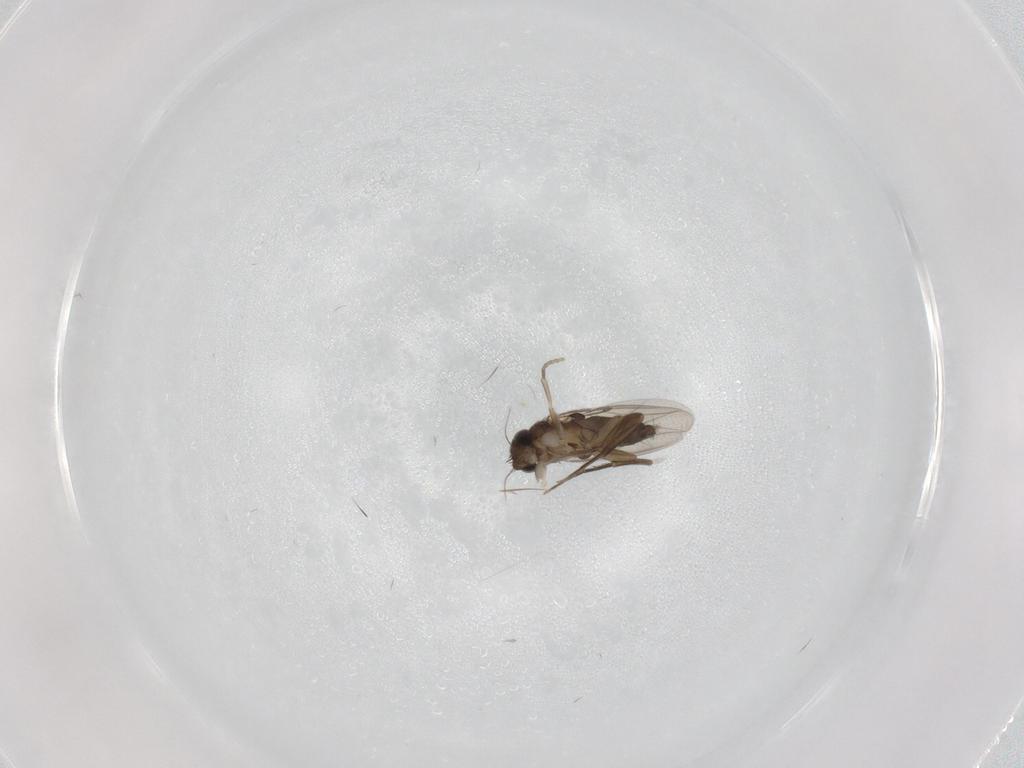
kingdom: Animalia
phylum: Arthropoda
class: Insecta
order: Diptera
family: Phoridae
